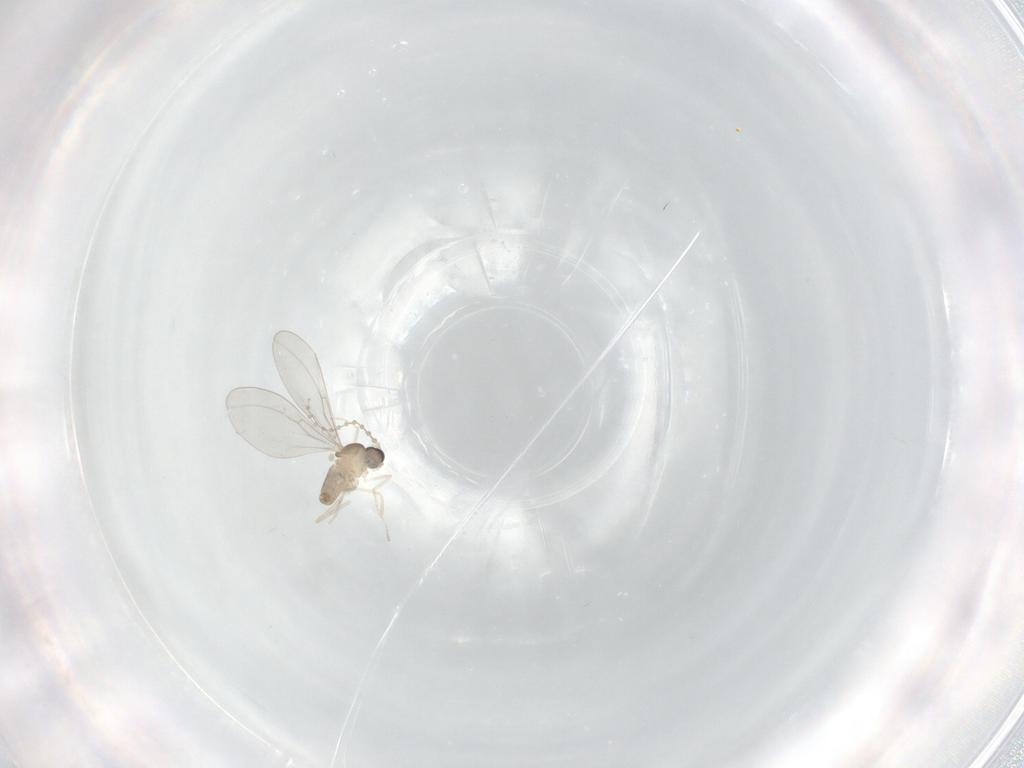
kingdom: Animalia
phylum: Arthropoda
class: Insecta
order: Diptera
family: Cecidomyiidae
